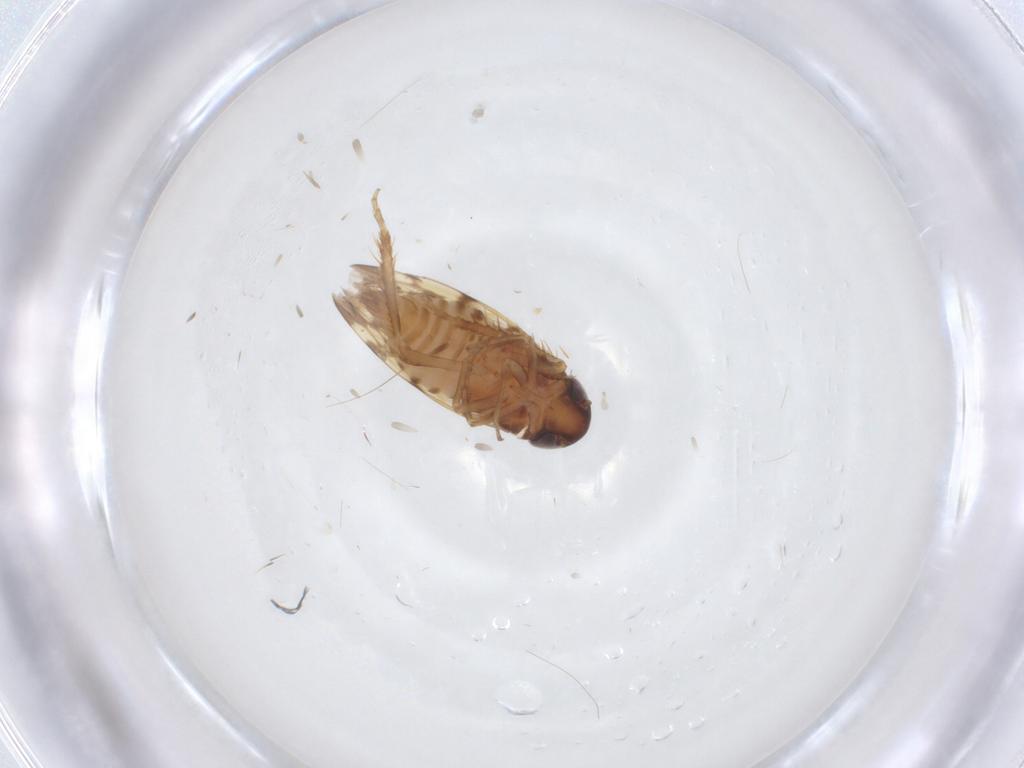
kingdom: Animalia
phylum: Arthropoda
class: Insecta
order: Hemiptera
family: Cicadellidae
